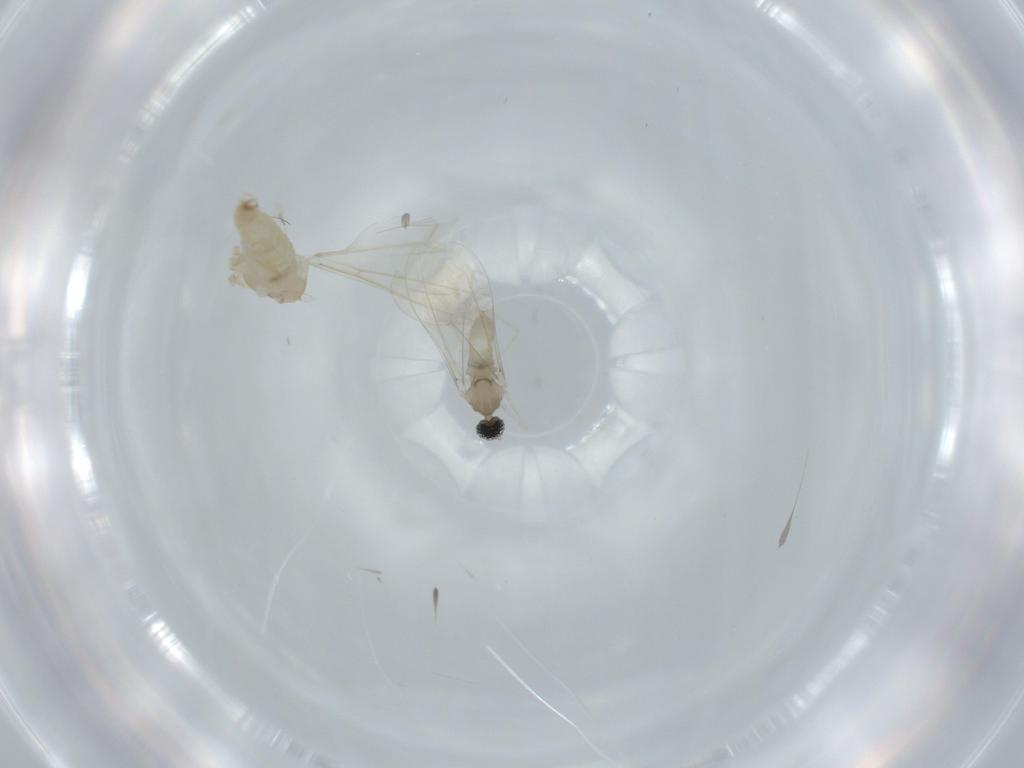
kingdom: Animalia
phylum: Arthropoda
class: Insecta
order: Diptera
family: Cecidomyiidae
